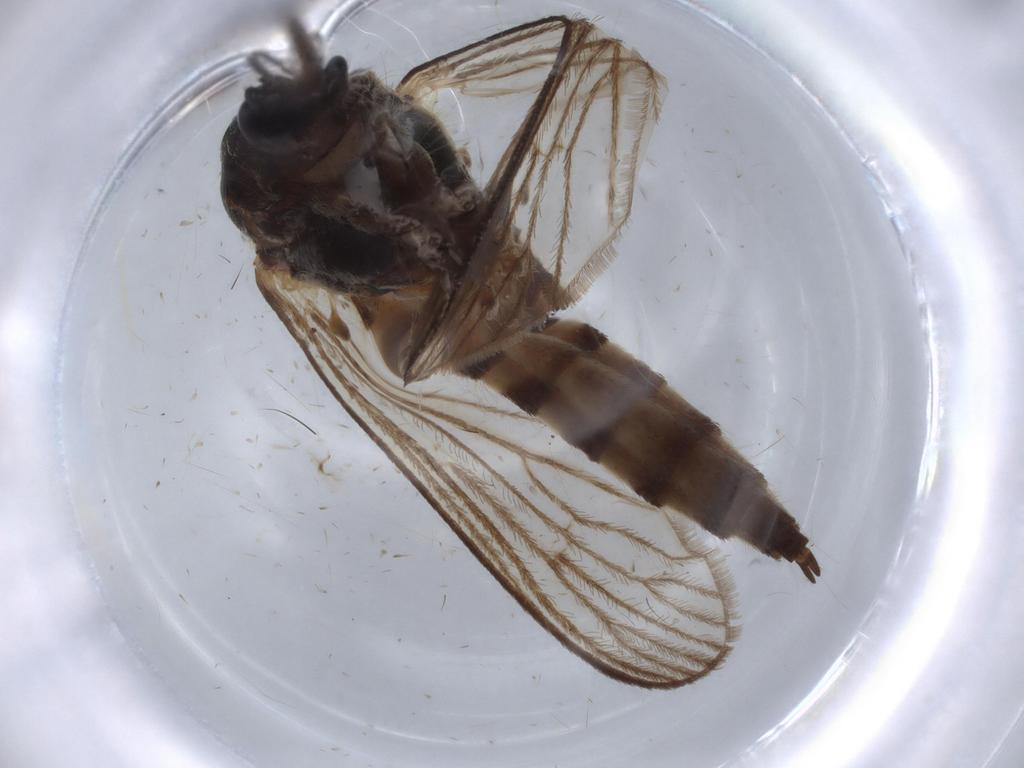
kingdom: Animalia
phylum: Arthropoda
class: Insecta
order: Diptera
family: Chironomidae
